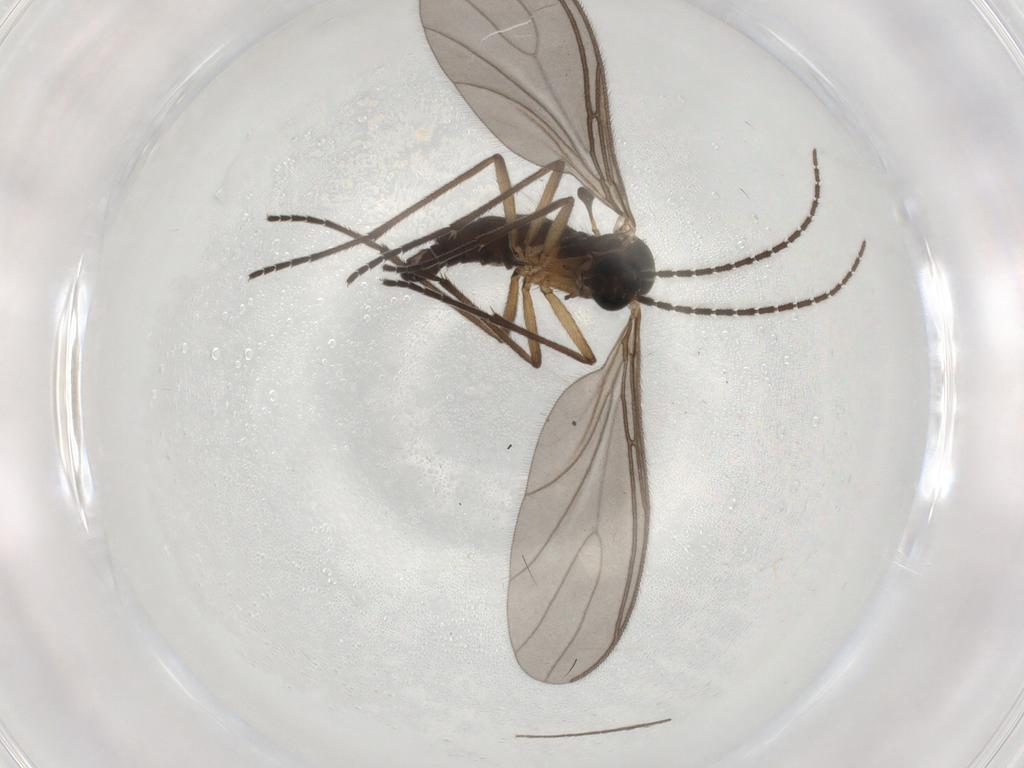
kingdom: Animalia
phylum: Arthropoda
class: Insecta
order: Diptera
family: Sciaridae
